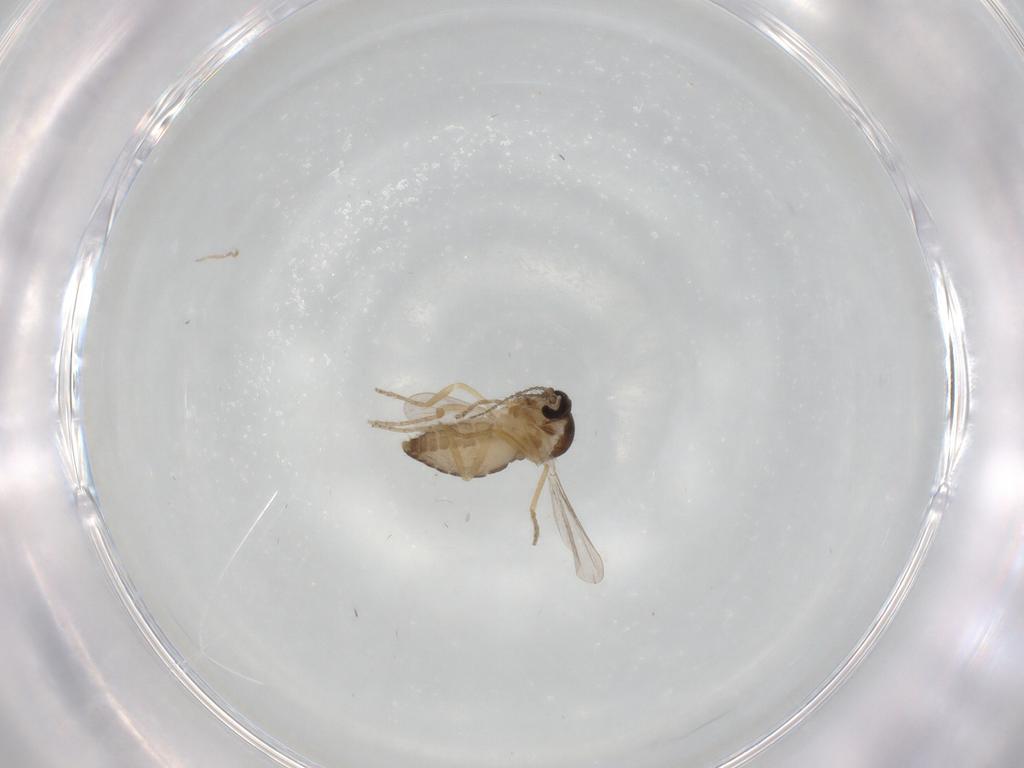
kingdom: Animalia
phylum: Arthropoda
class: Insecta
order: Diptera
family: Ceratopogonidae
